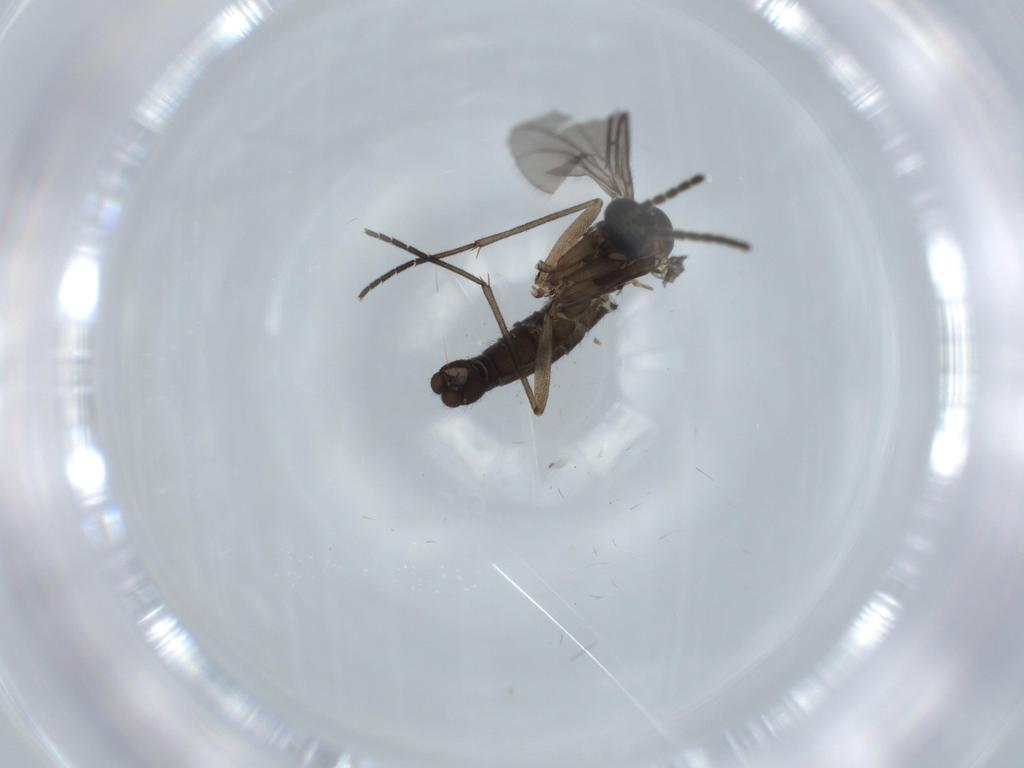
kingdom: Animalia
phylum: Arthropoda
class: Insecta
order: Diptera
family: Sciaridae
